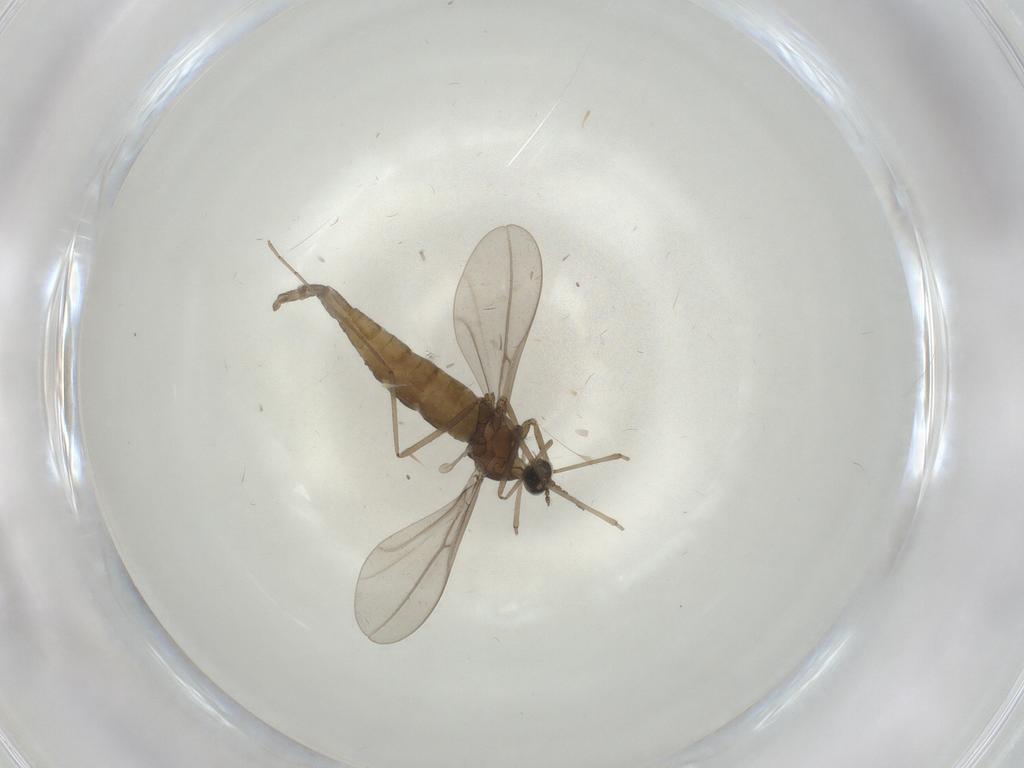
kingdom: Animalia
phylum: Arthropoda
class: Insecta
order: Diptera
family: Cecidomyiidae
